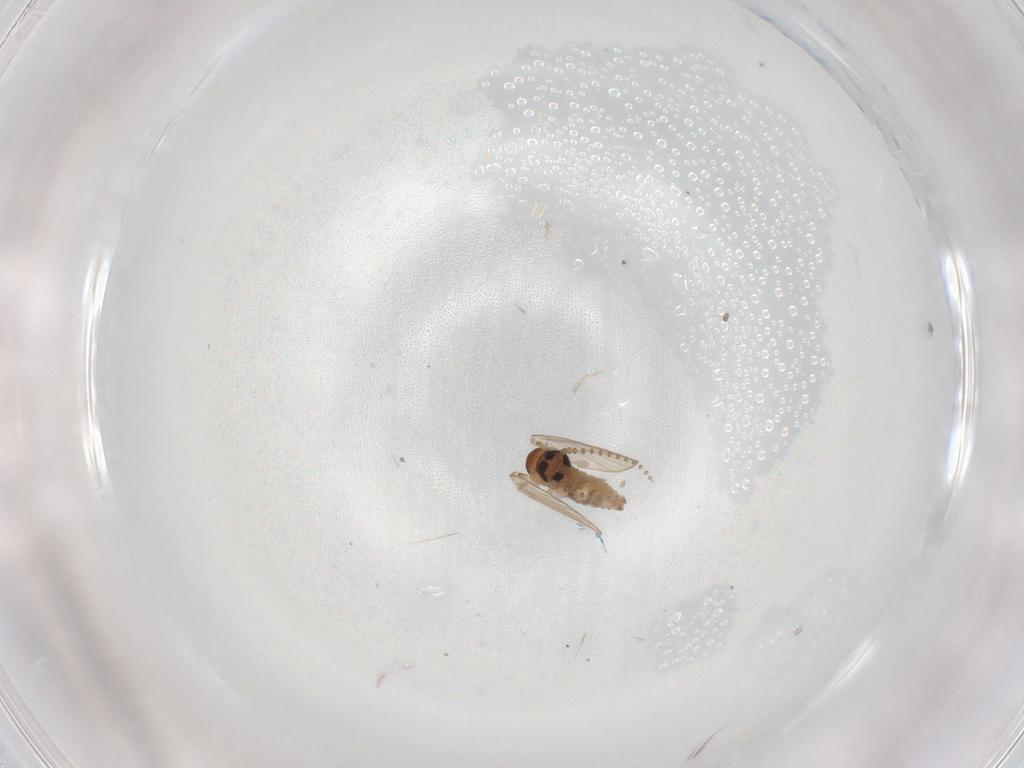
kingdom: Animalia
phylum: Arthropoda
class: Insecta
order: Diptera
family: Psychodidae
